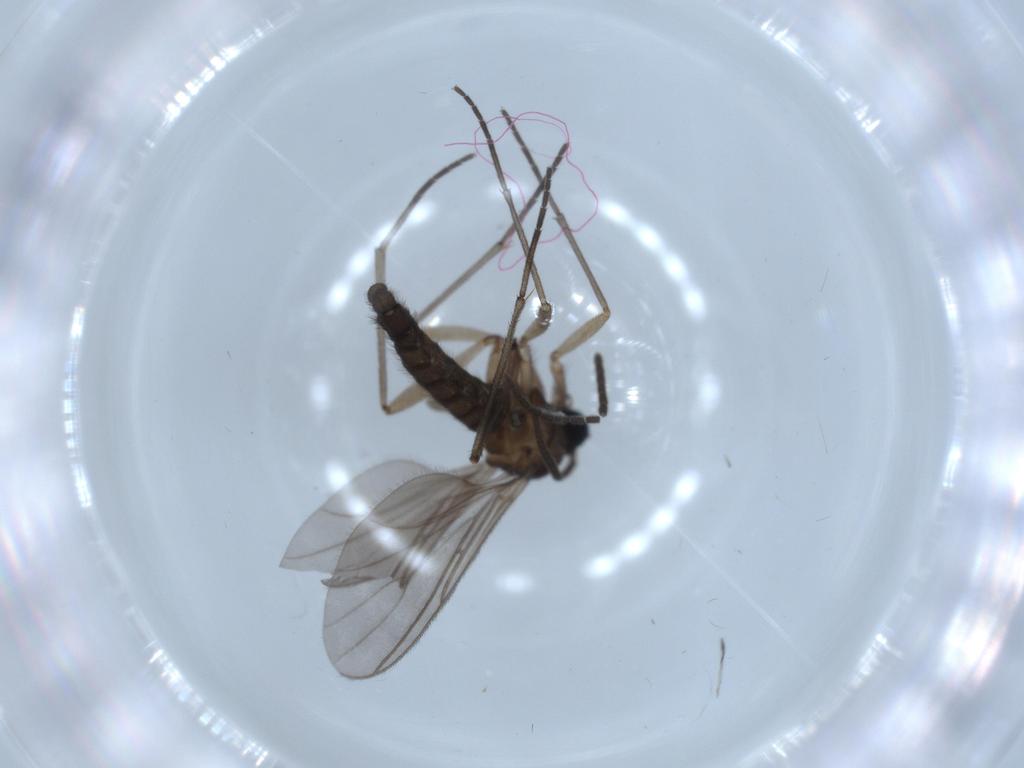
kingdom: Animalia
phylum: Arthropoda
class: Insecta
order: Diptera
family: Sciaridae
